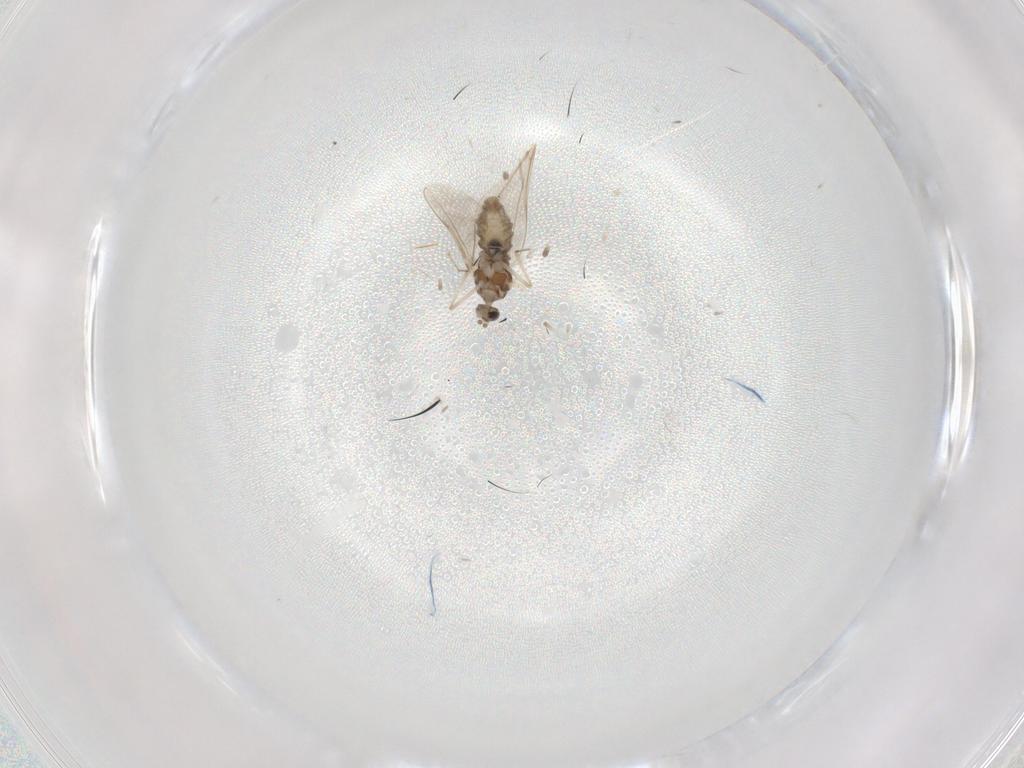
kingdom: Animalia
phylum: Arthropoda
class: Insecta
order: Diptera
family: Cecidomyiidae
